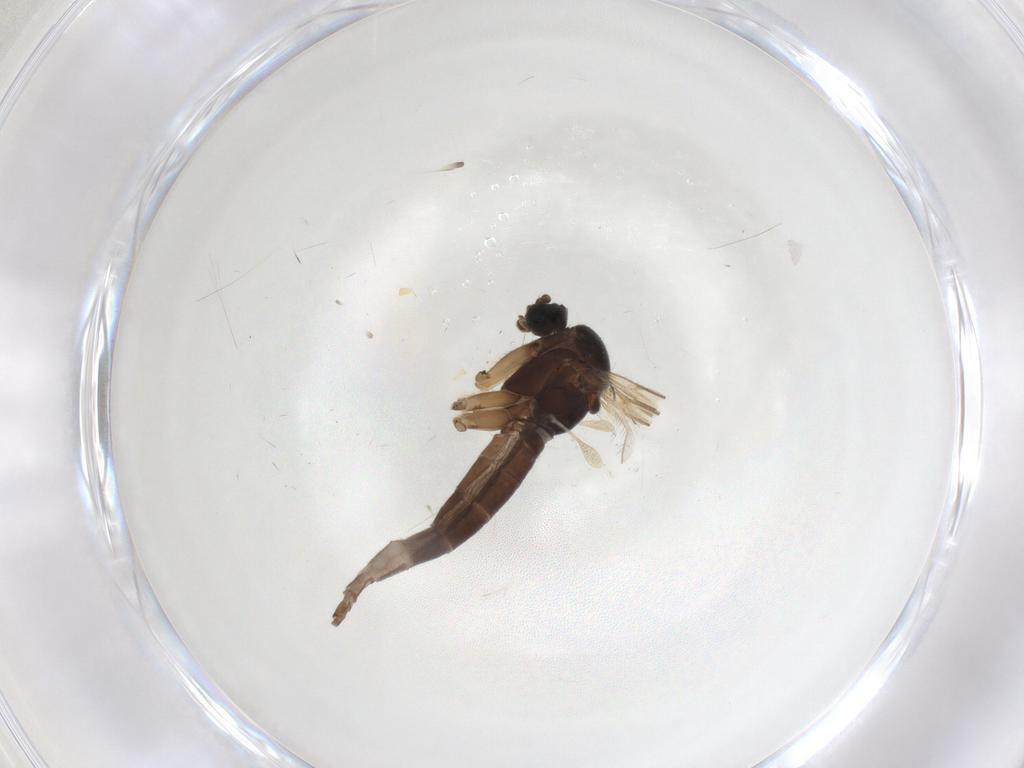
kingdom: Animalia
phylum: Arthropoda
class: Insecta
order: Diptera
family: Sciaridae
